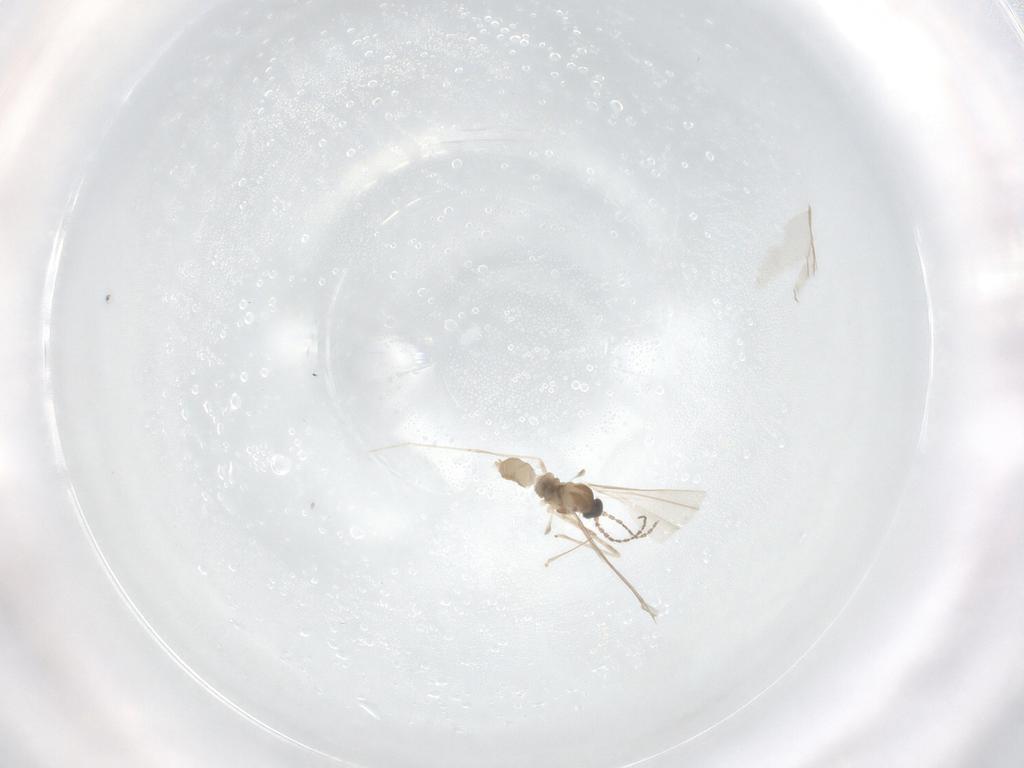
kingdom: Animalia
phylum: Arthropoda
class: Insecta
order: Diptera
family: Cecidomyiidae
